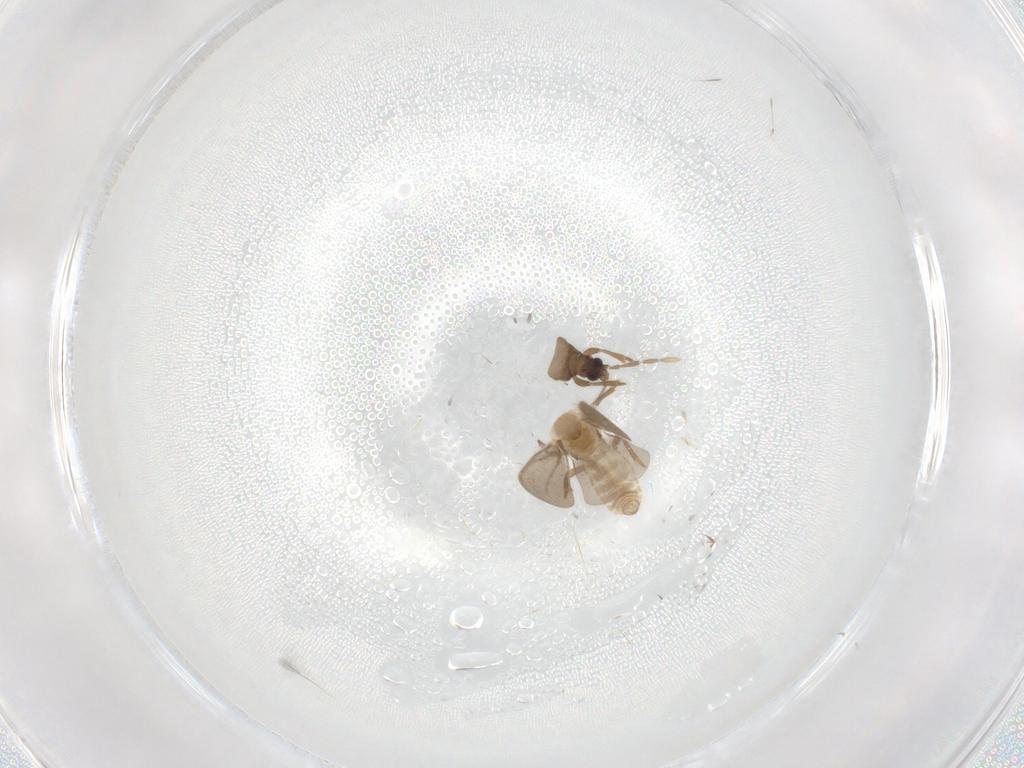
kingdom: Animalia
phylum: Arthropoda
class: Insecta
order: Hemiptera
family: Enicocephalidae
